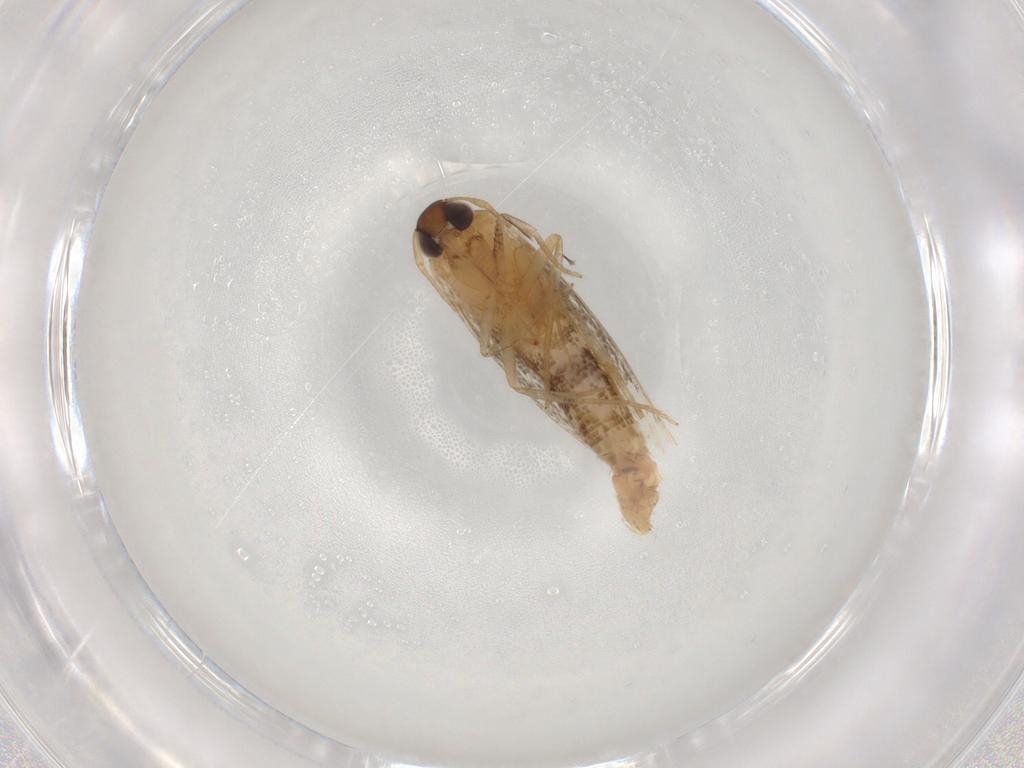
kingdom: Animalia
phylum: Arthropoda
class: Insecta
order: Lepidoptera
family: Cosmopterigidae
